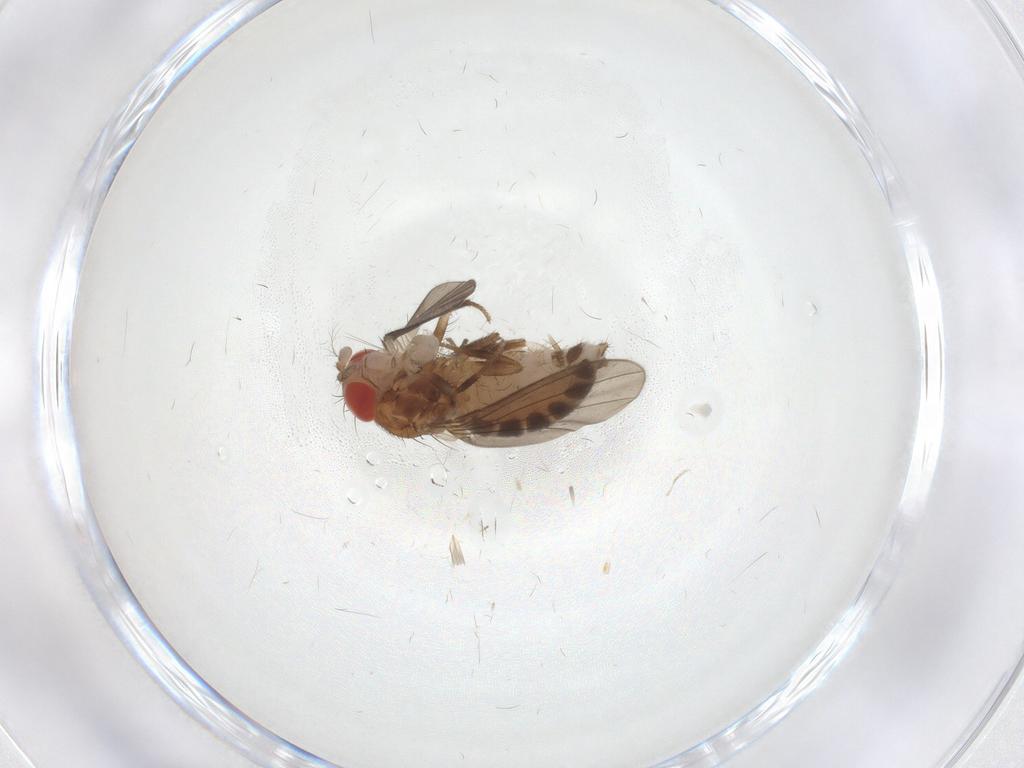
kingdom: Animalia
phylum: Arthropoda
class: Insecta
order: Diptera
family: Drosophilidae
